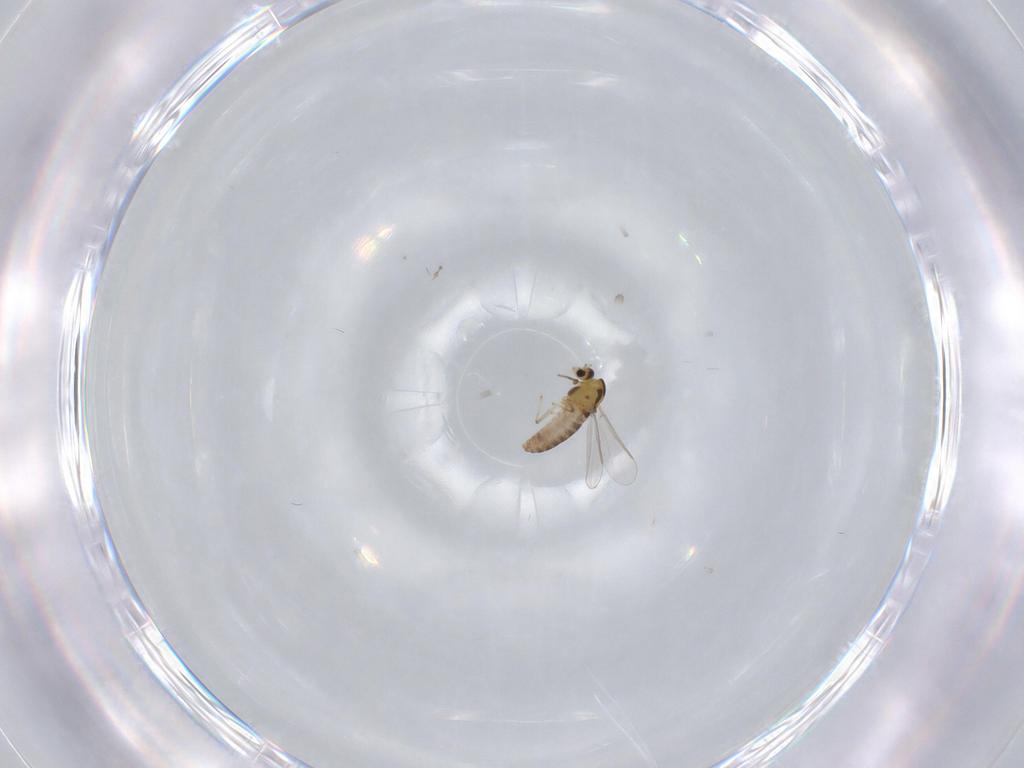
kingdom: Animalia
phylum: Arthropoda
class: Insecta
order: Diptera
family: Chironomidae
